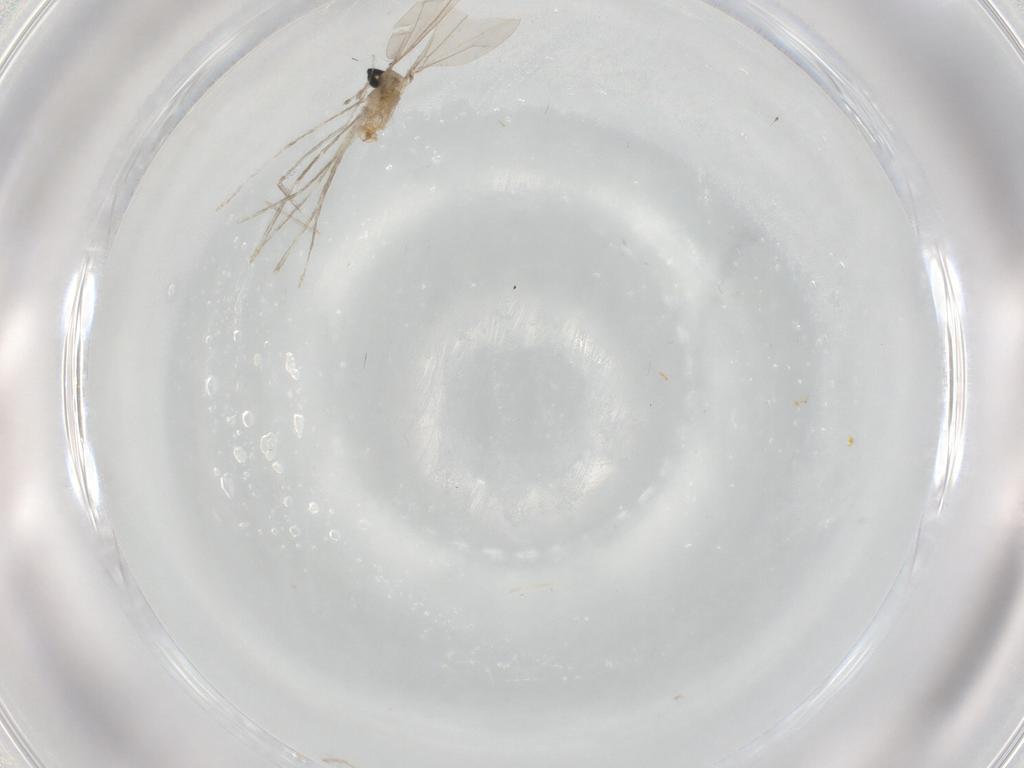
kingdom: Animalia
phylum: Arthropoda
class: Insecta
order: Diptera
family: Cecidomyiidae
